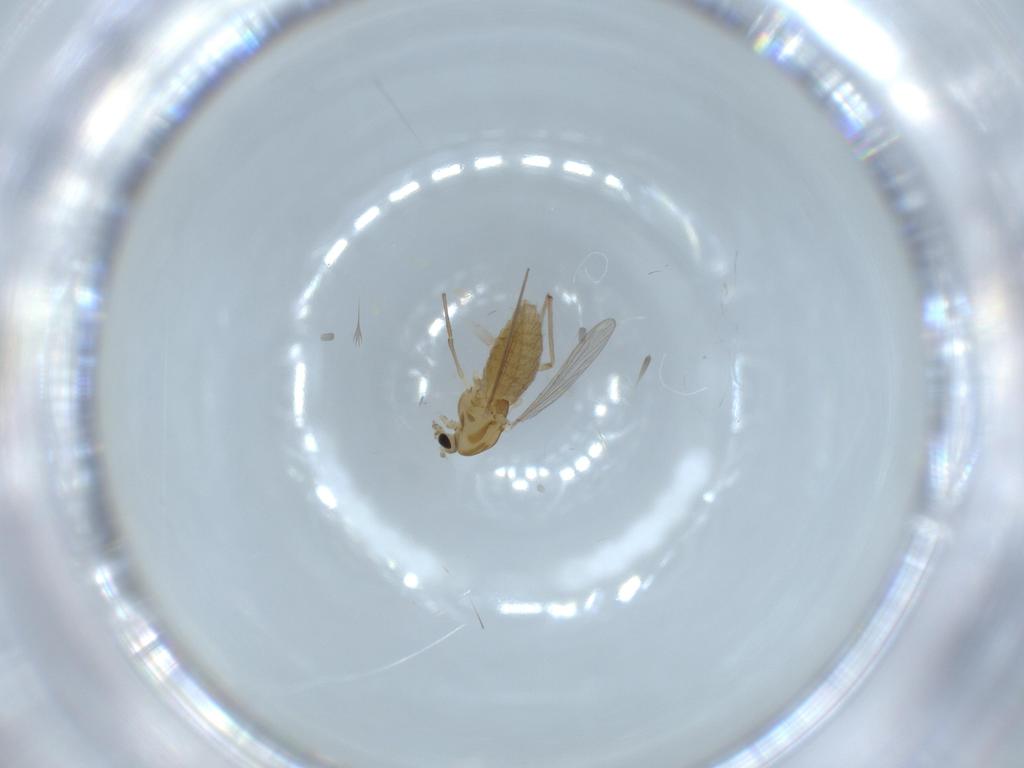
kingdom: Animalia
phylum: Arthropoda
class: Insecta
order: Diptera
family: Chironomidae
